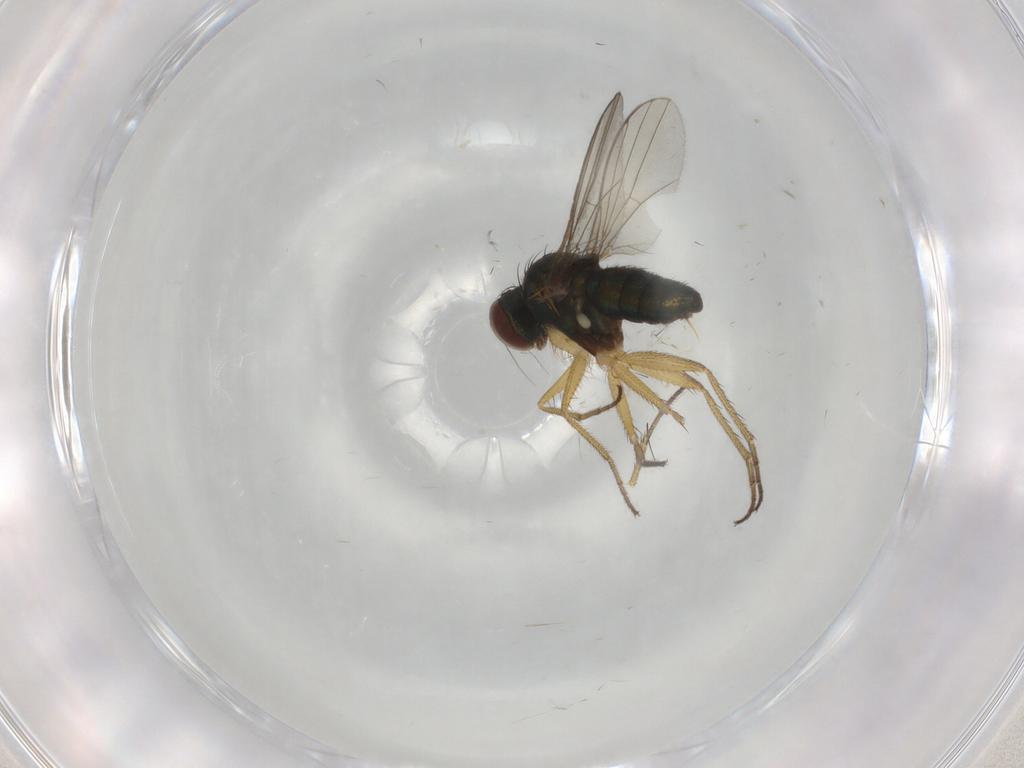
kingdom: Animalia
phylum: Arthropoda
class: Insecta
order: Diptera
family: Dolichopodidae
